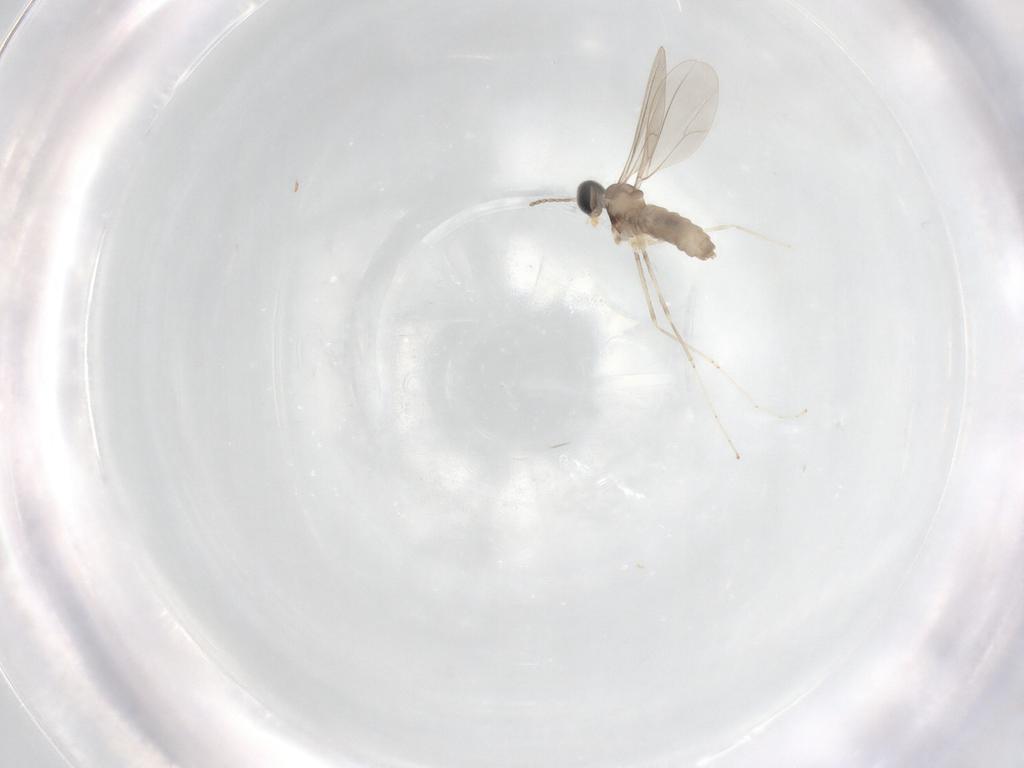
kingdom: Animalia
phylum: Arthropoda
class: Insecta
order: Diptera
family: Cecidomyiidae
